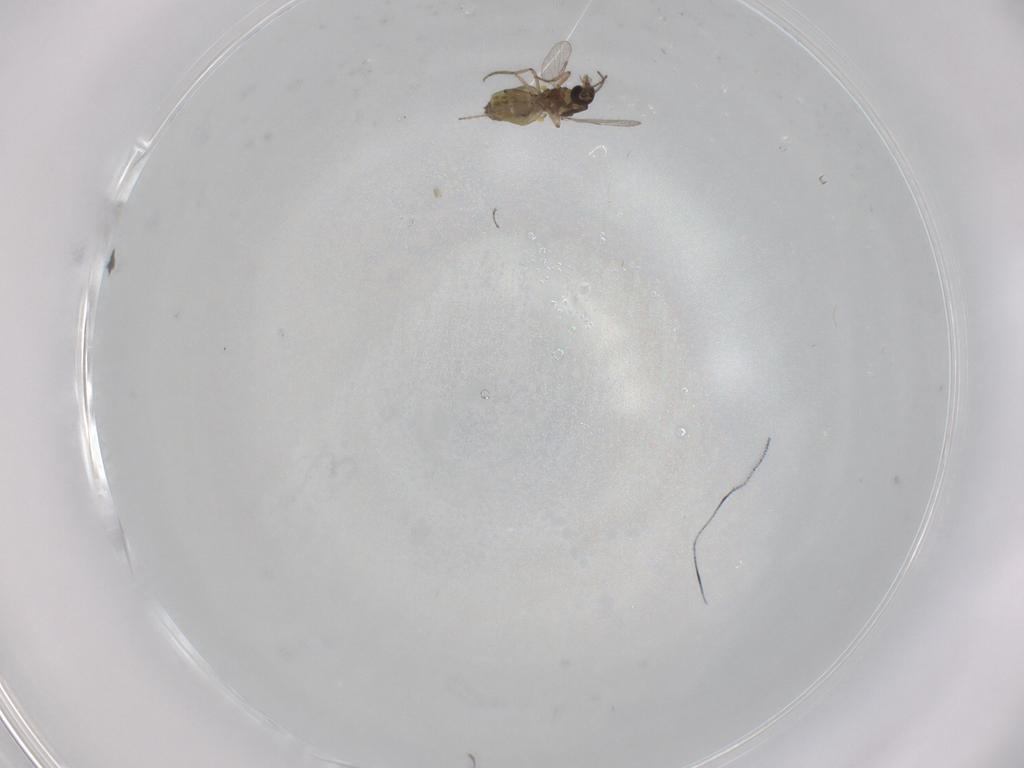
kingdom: Animalia
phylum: Arthropoda
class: Insecta
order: Diptera
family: Ceratopogonidae
